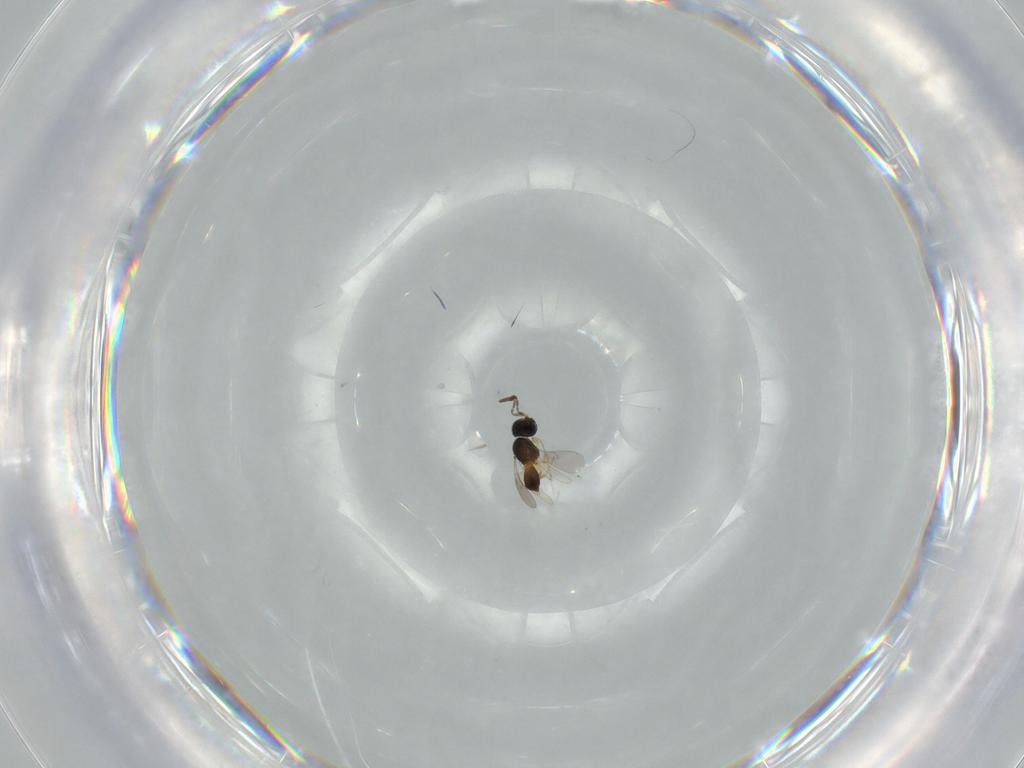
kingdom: Animalia
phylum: Arthropoda
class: Insecta
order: Hymenoptera
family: Scelionidae
